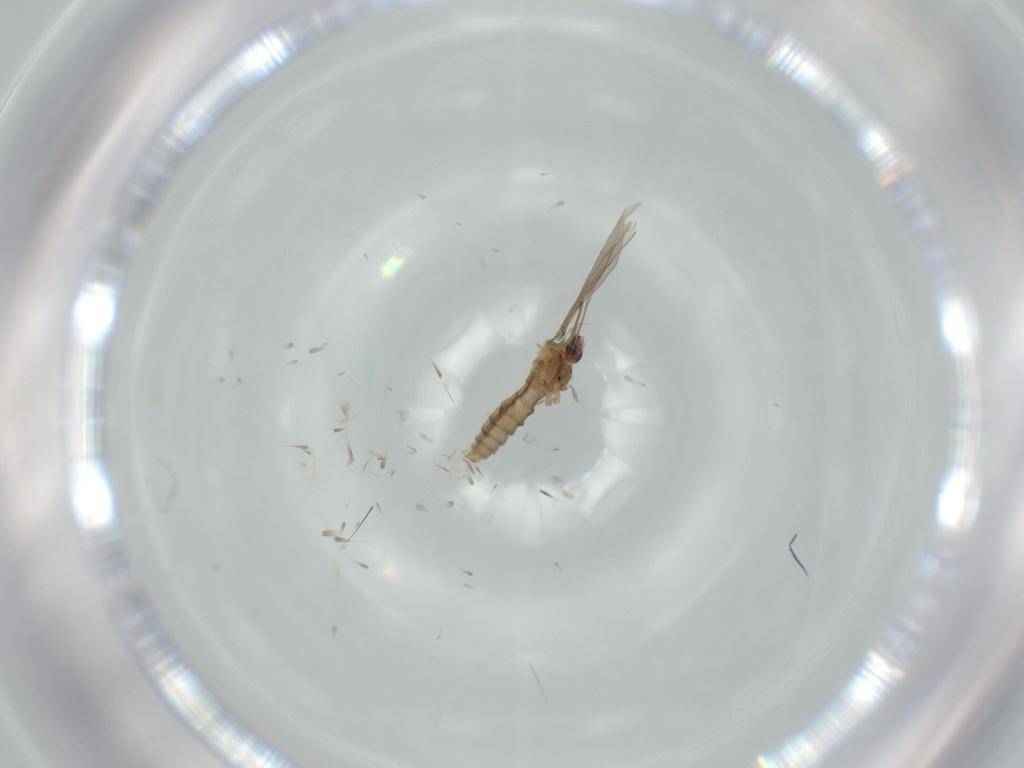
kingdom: Animalia
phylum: Arthropoda
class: Insecta
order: Diptera
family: Cecidomyiidae
